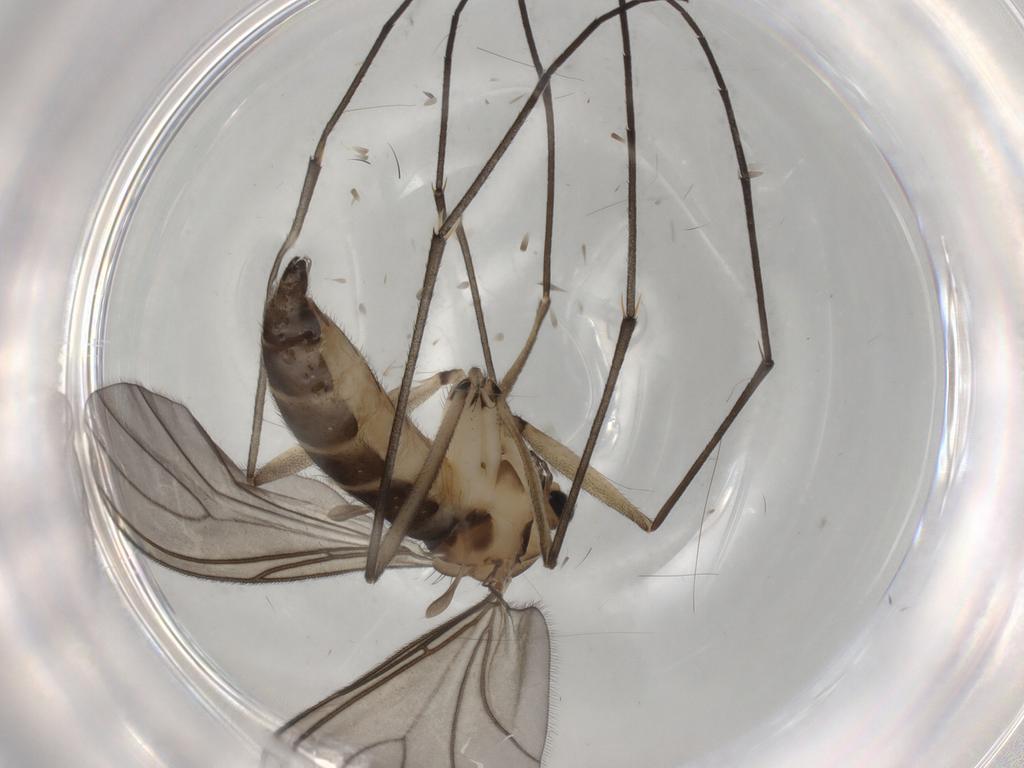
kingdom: Animalia
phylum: Arthropoda
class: Insecta
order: Diptera
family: Sciaridae
